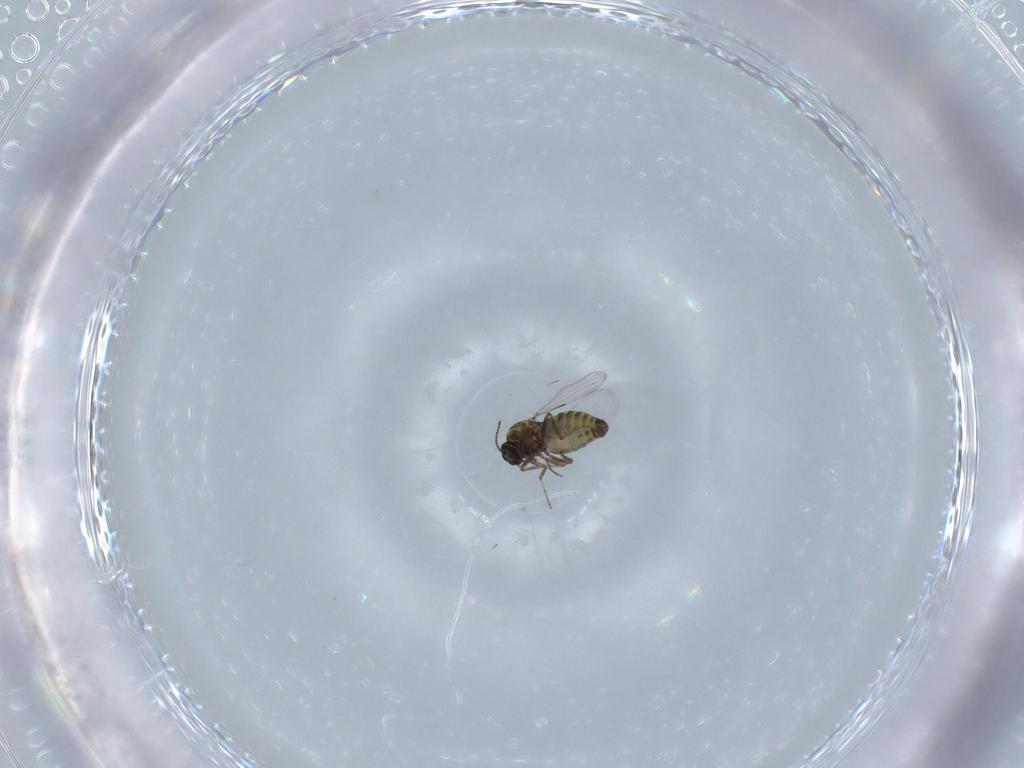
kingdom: Animalia
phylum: Arthropoda
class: Insecta
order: Diptera
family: Ceratopogonidae
